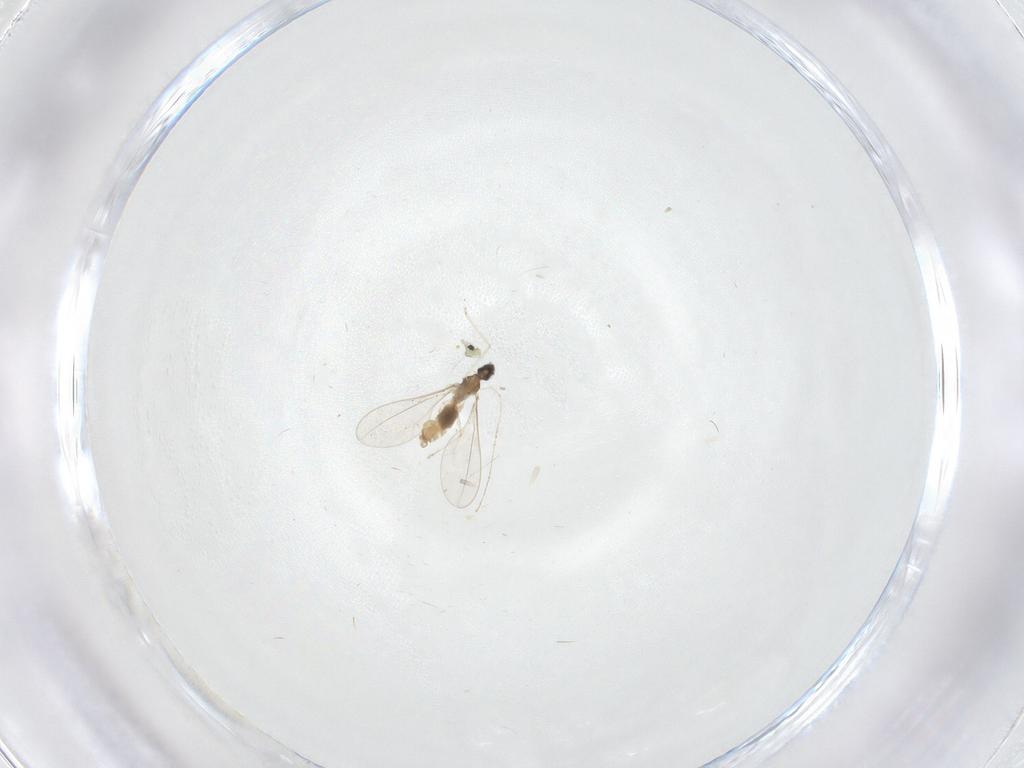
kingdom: Animalia
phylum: Arthropoda
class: Insecta
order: Diptera
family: Cecidomyiidae
